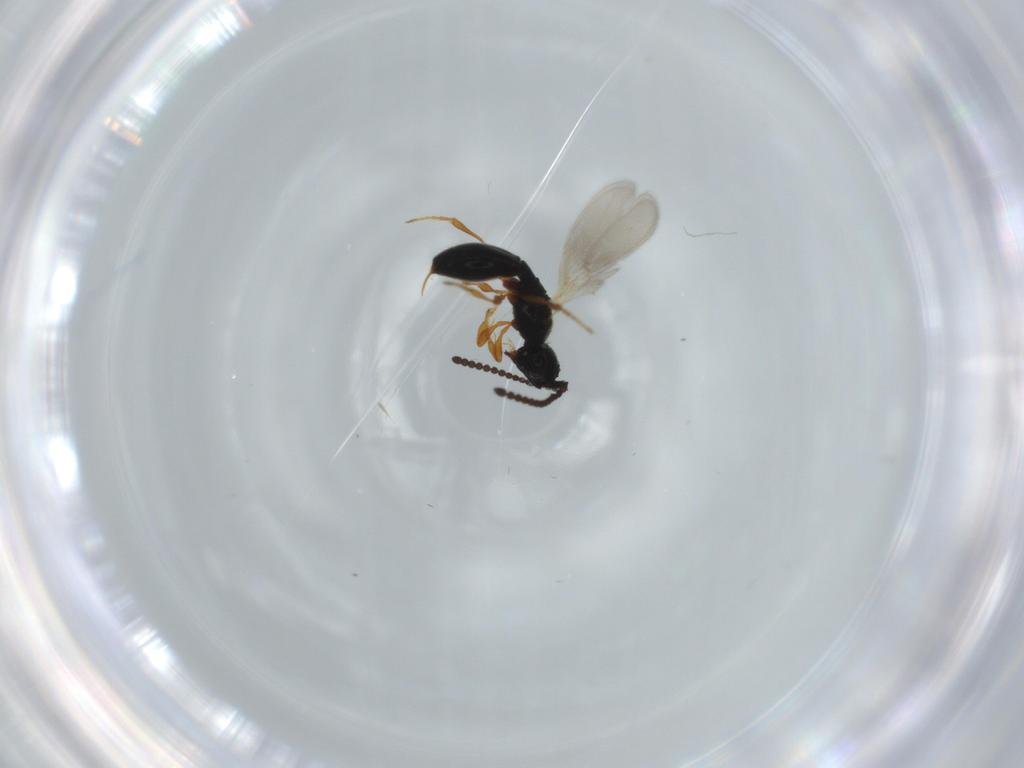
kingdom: Animalia
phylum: Arthropoda
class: Insecta
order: Hymenoptera
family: Diapriidae
